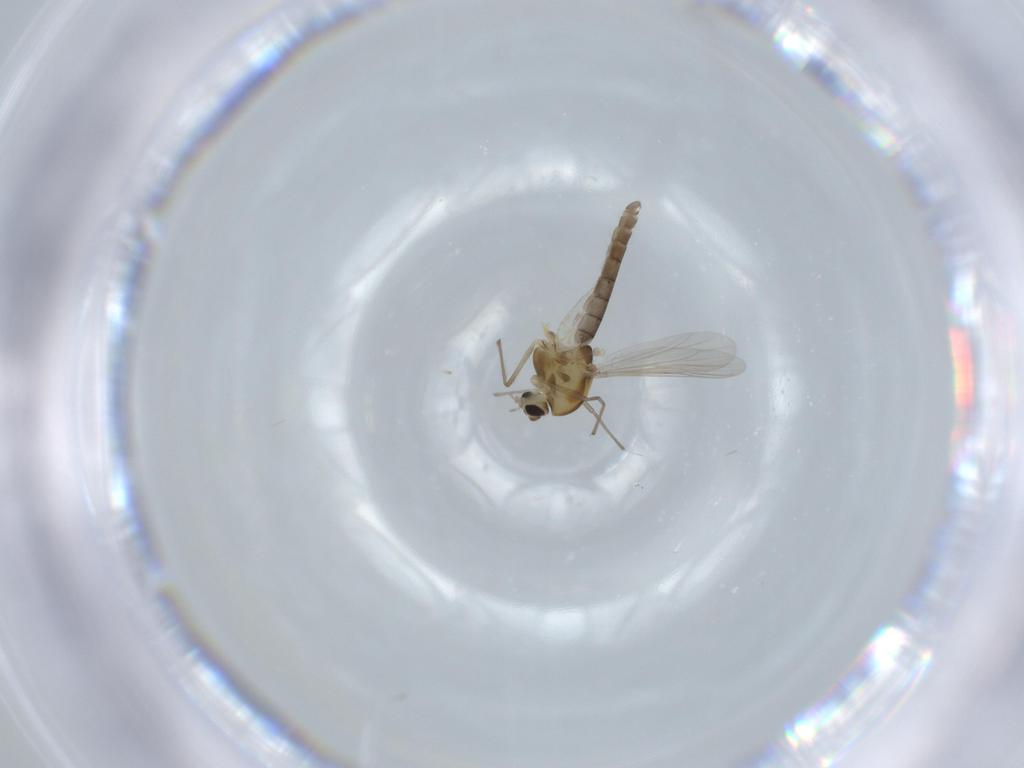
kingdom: Animalia
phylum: Arthropoda
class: Insecta
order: Diptera
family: Chironomidae
